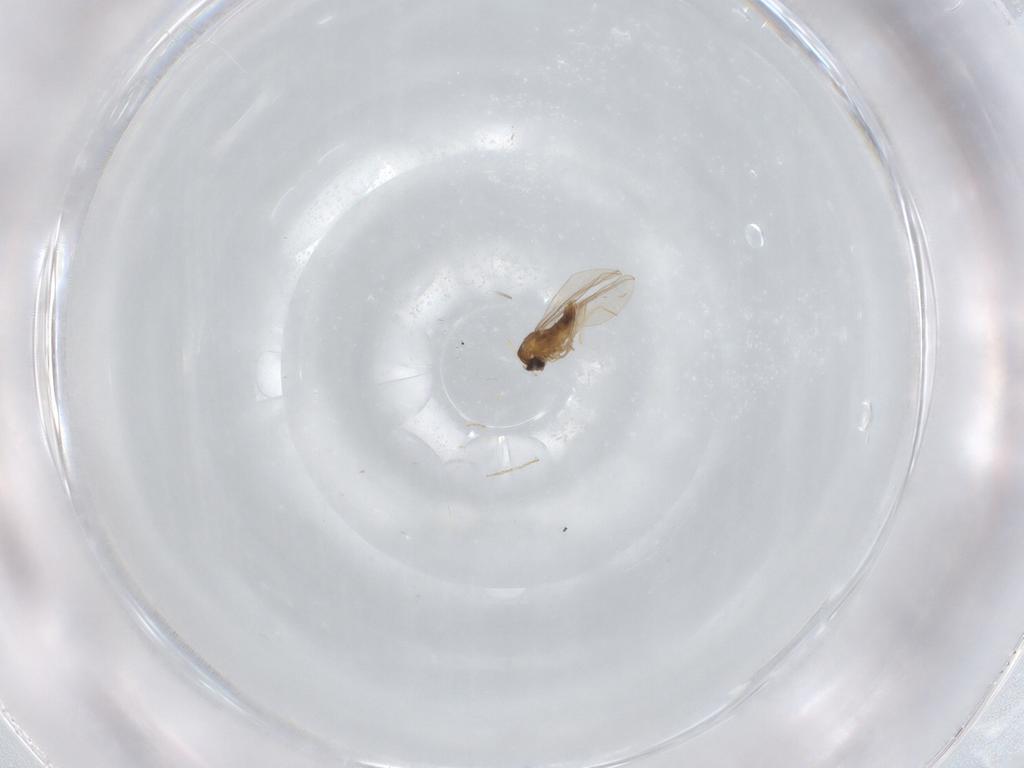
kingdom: Animalia
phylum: Arthropoda
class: Insecta
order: Diptera
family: Cecidomyiidae
